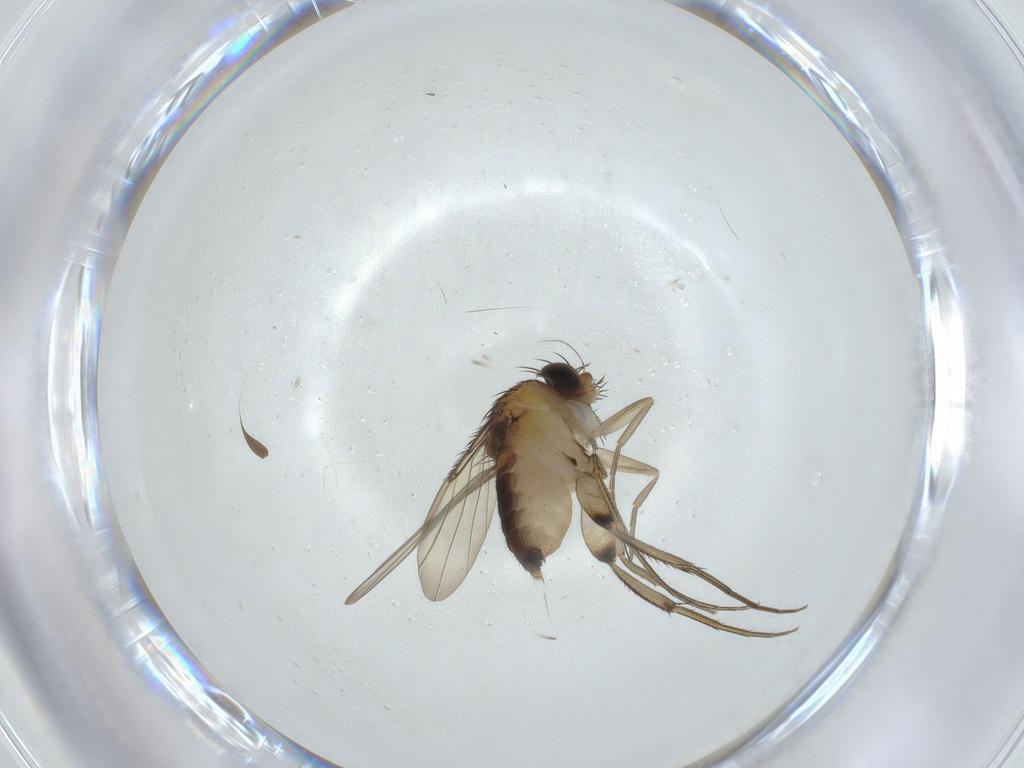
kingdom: Animalia
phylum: Arthropoda
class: Insecta
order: Diptera
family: Phoridae
